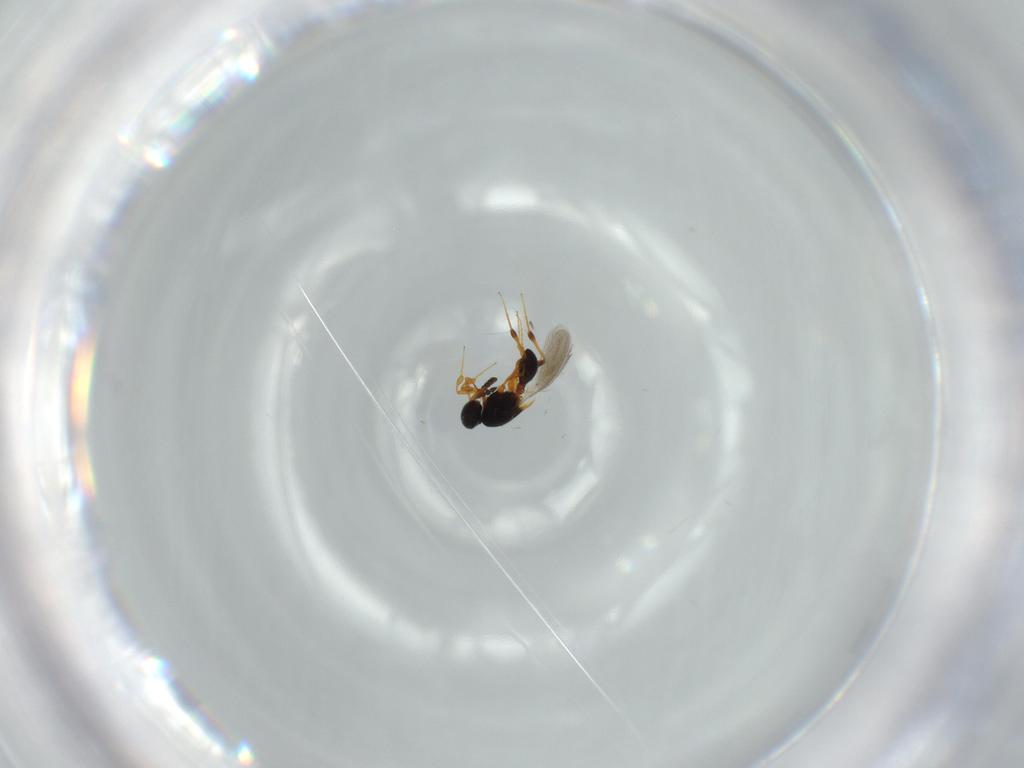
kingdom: Animalia
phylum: Arthropoda
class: Insecta
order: Hymenoptera
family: Platygastridae
